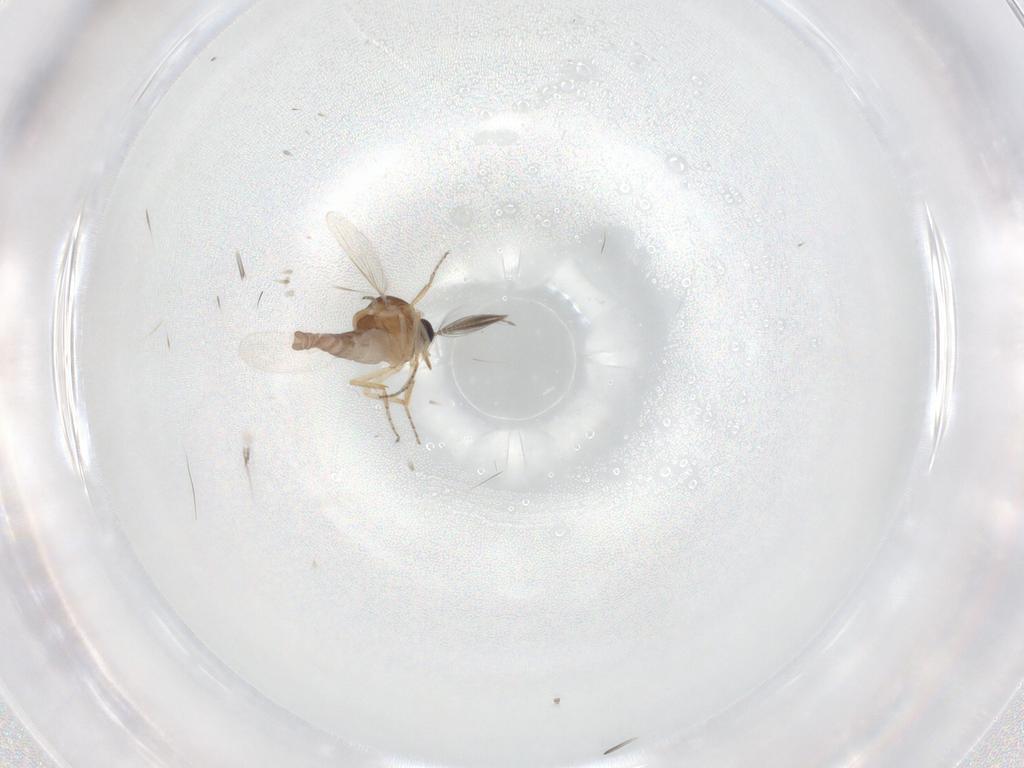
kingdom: Animalia
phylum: Arthropoda
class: Insecta
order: Diptera
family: Ceratopogonidae
